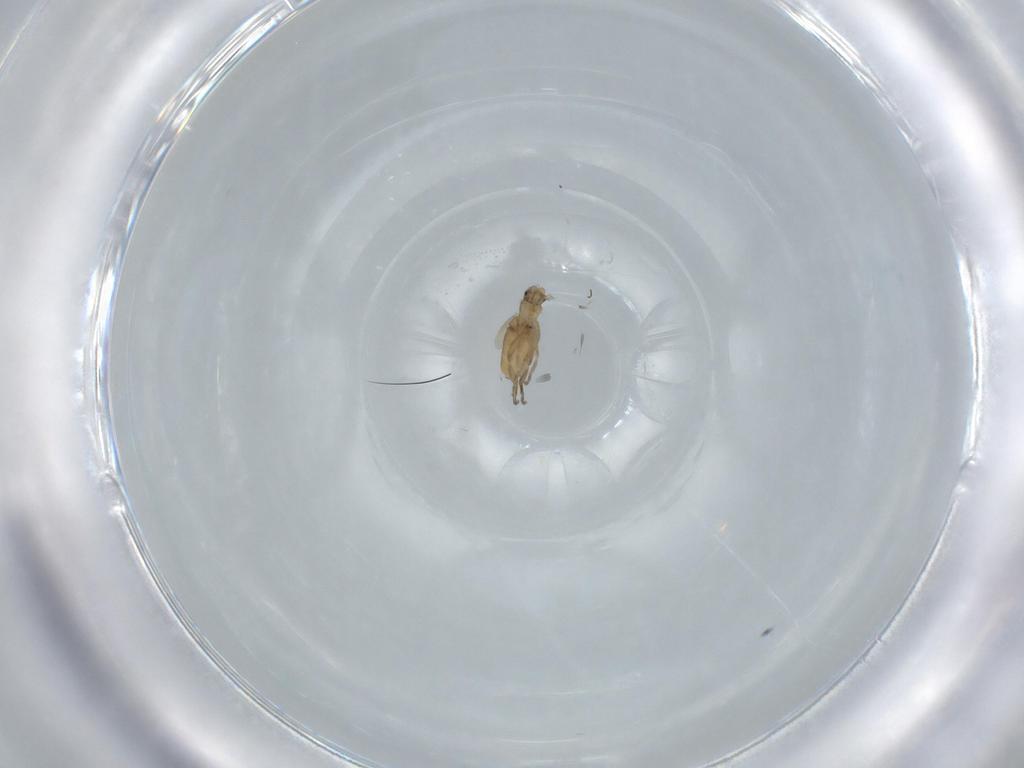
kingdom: Animalia
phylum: Arthropoda
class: Insecta
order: Diptera
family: Phoridae
